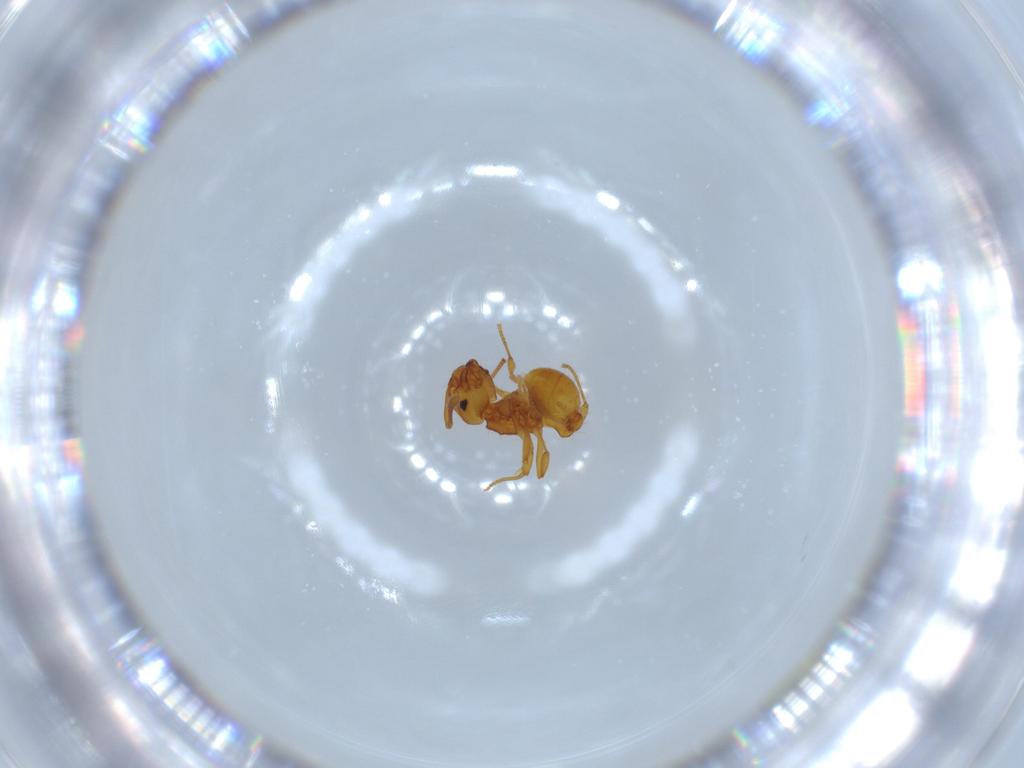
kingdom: Animalia
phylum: Arthropoda
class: Insecta
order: Hymenoptera
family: Formicidae
